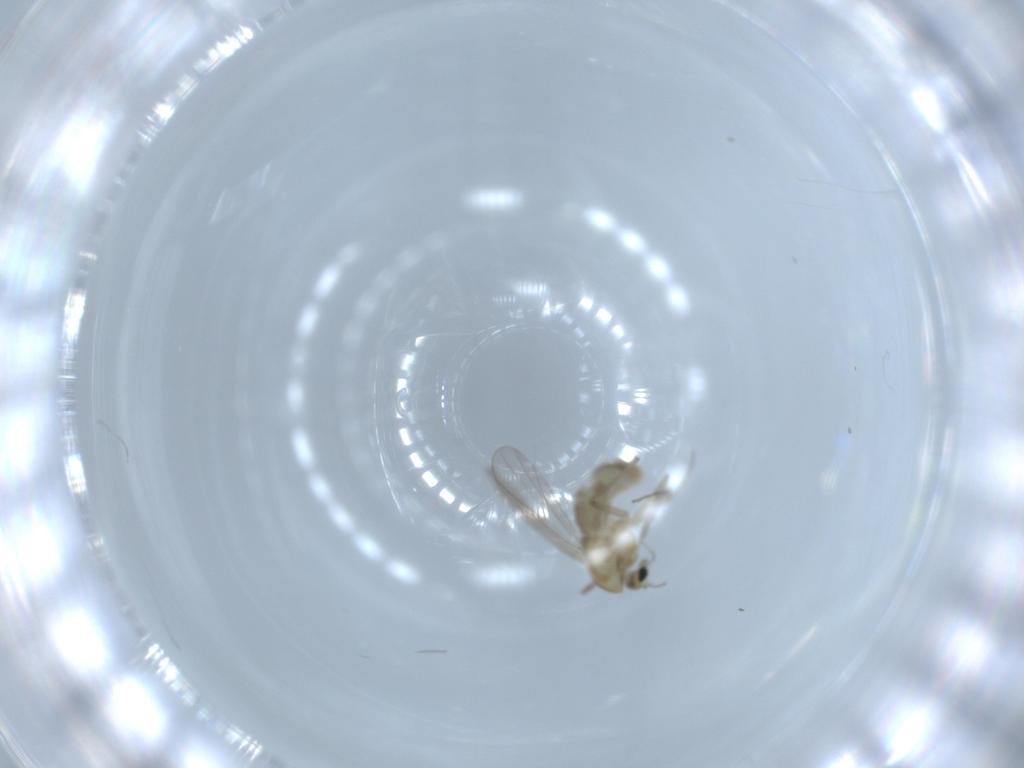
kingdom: Animalia
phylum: Arthropoda
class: Insecta
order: Diptera
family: Chironomidae
